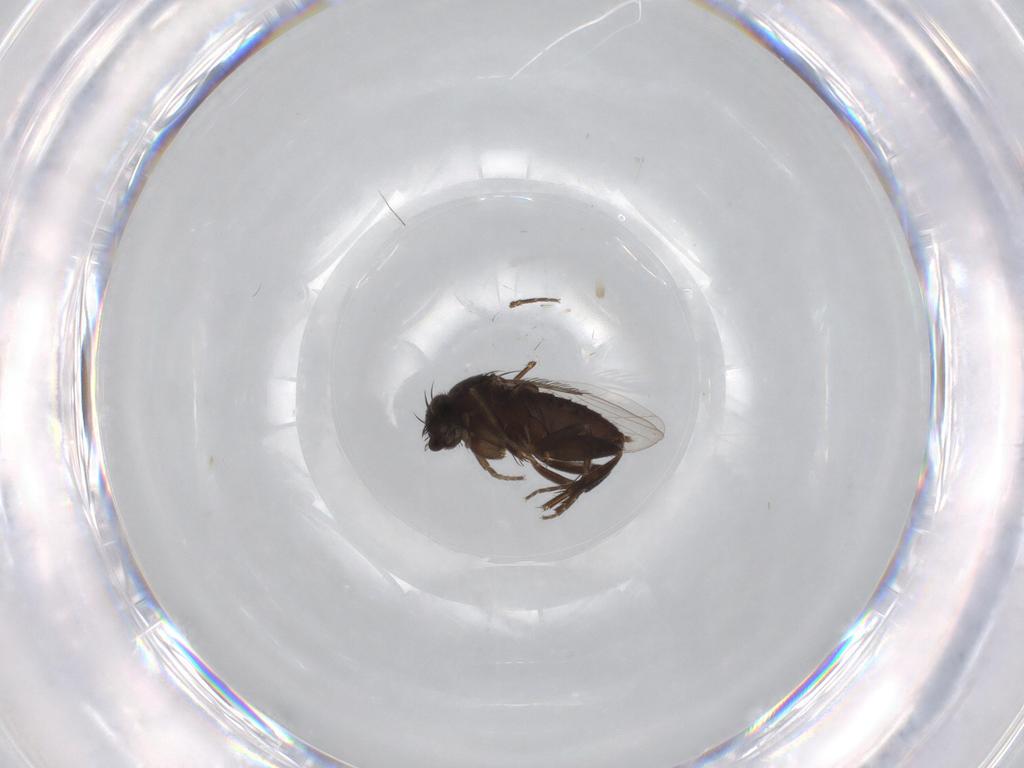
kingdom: Animalia
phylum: Arthropoda
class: Insecta
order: Diptera
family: Phoridae
